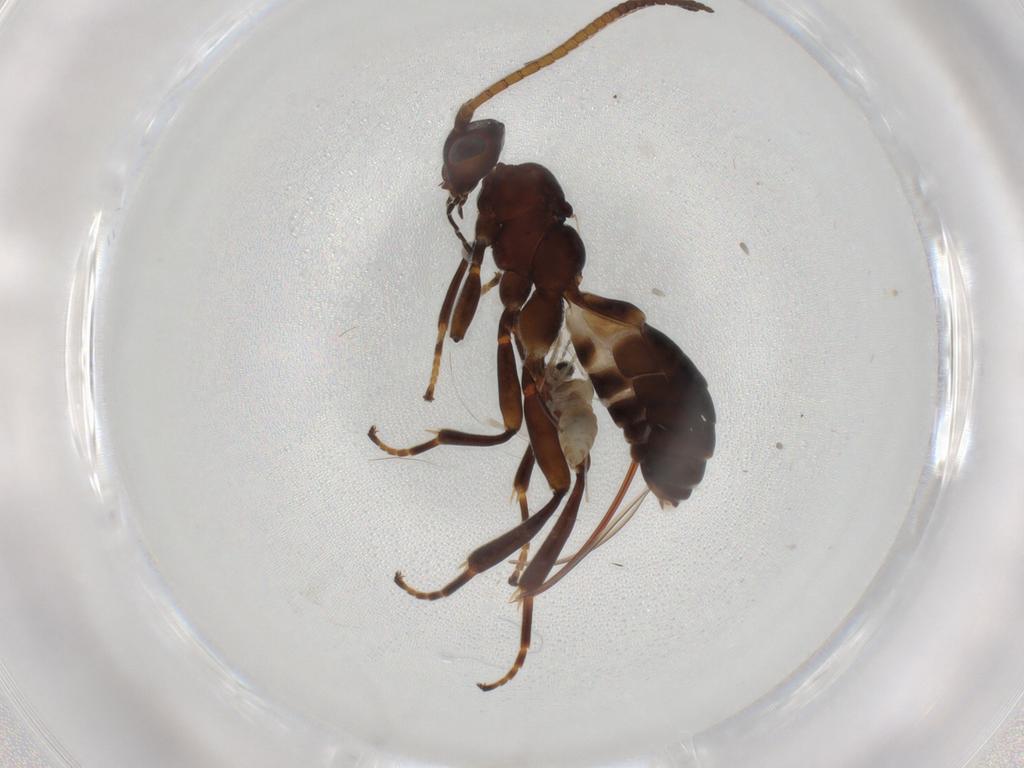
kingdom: Animalia
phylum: Arthropoda
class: Insecta
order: Hymenoptera
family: Braconidae
